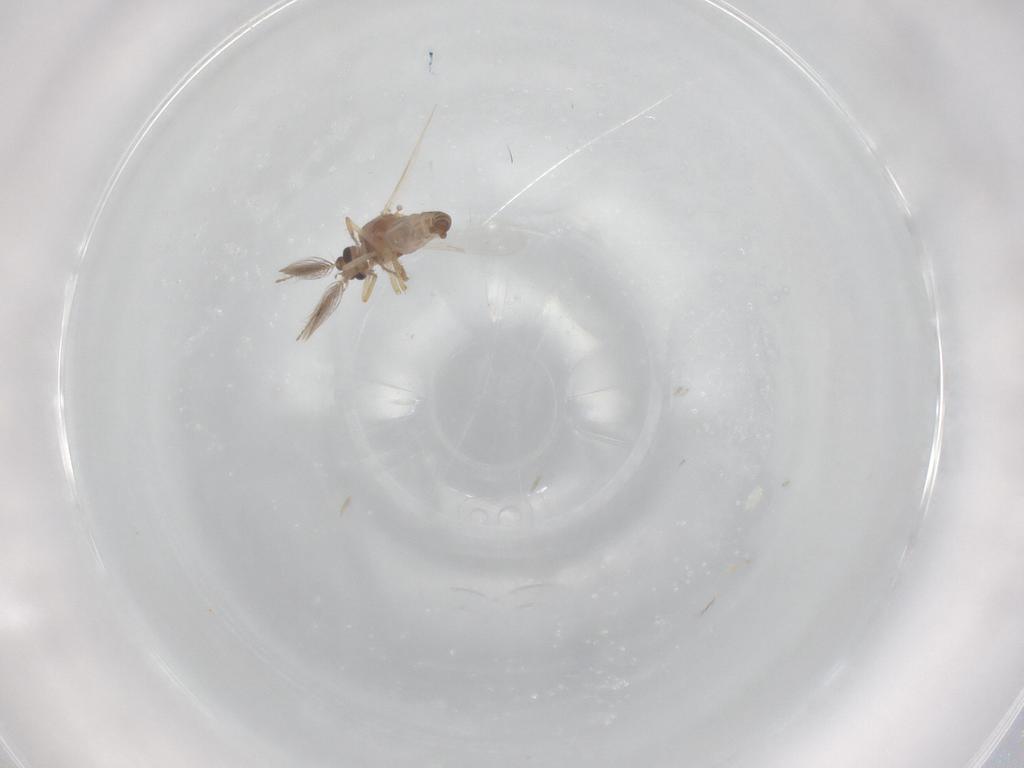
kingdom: Animalia
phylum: Arthropoda
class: Insecta
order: Diptera
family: Ceratopogonidae
